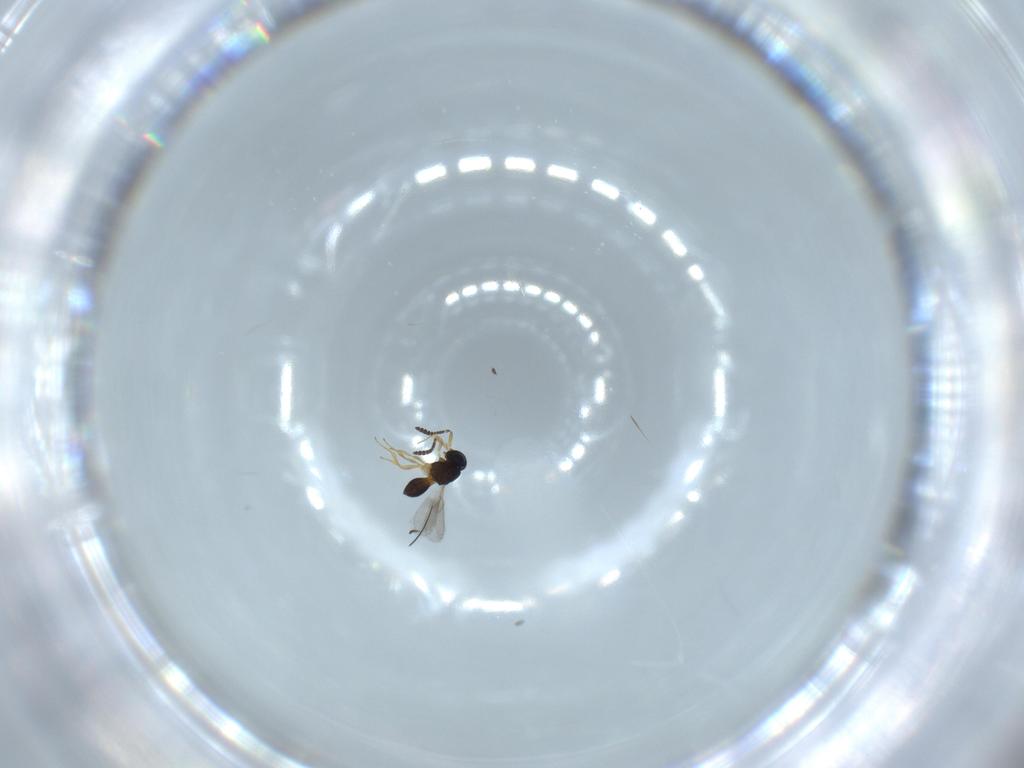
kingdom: Animalia
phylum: Arthropoda
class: Insecta
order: Hymenoptera
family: Scelionidae
